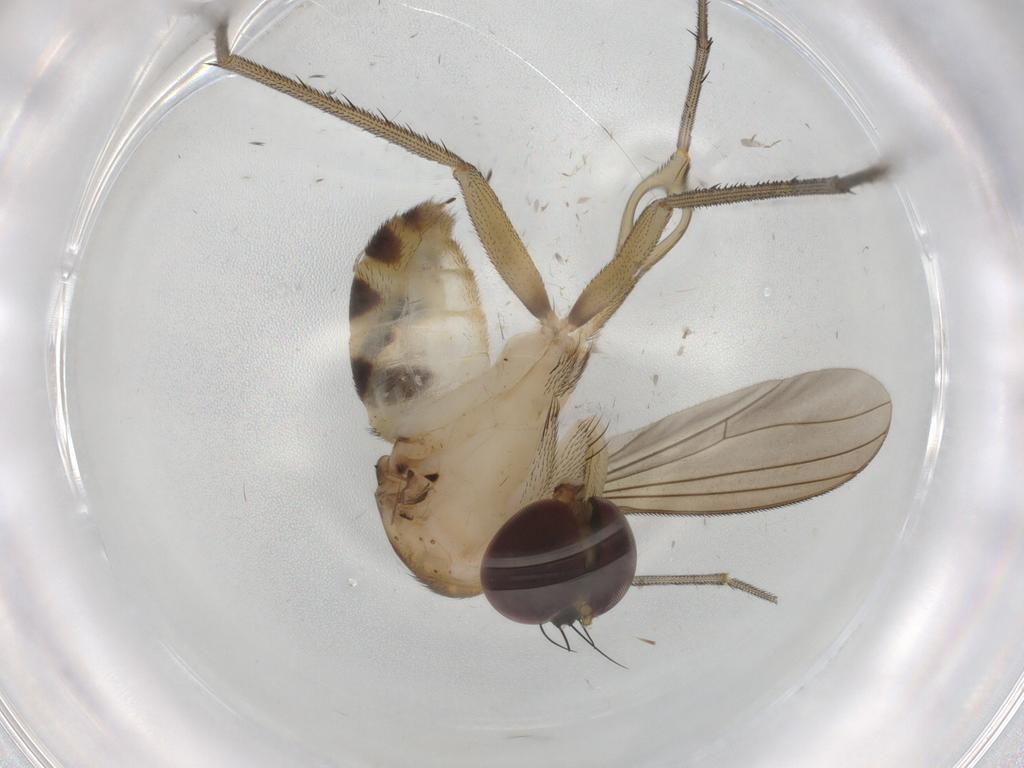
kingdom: Animalia
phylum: Arthropoda
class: Insecta
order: Diptera
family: Dolichopodidae
